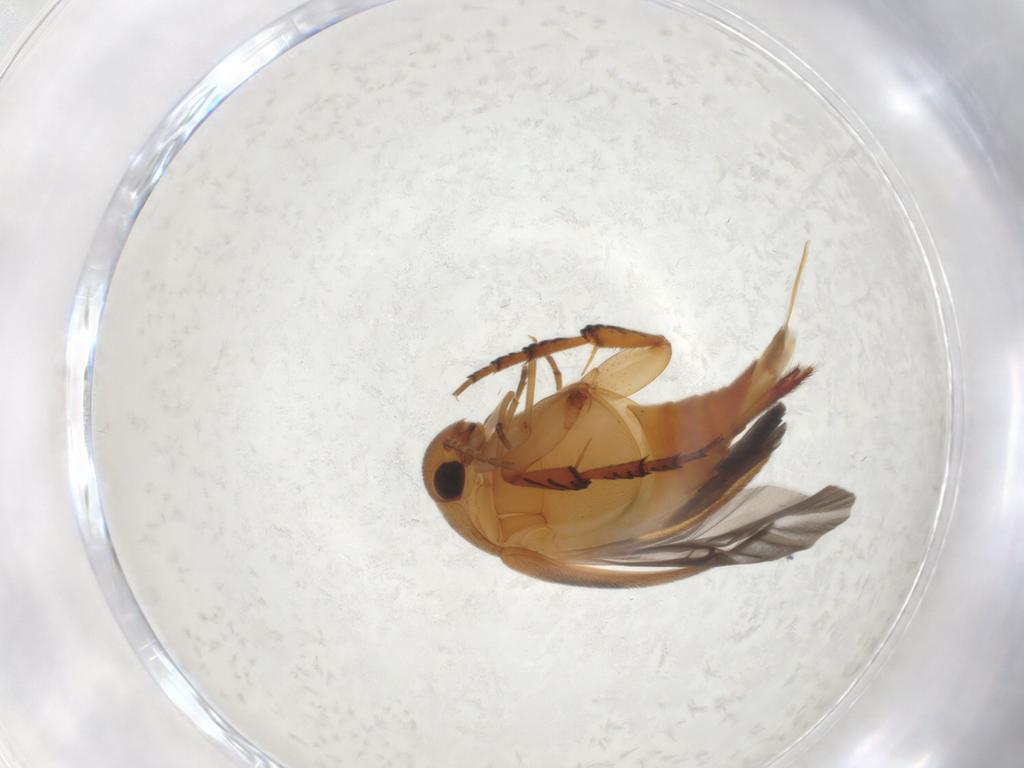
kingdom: Animalia
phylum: Arthropoda
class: Insecta
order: Coleoptera
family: Mordellidae
